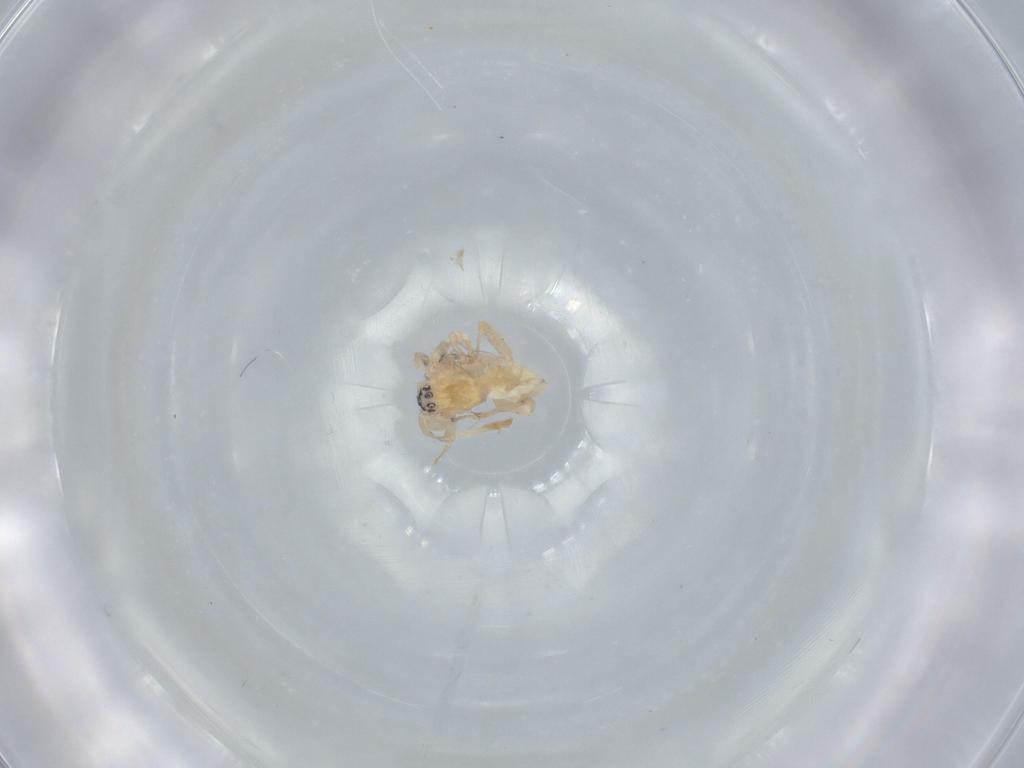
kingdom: Animalia
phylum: Arthropoda
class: Arachnida
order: Araneae
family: Anyphaenidae
